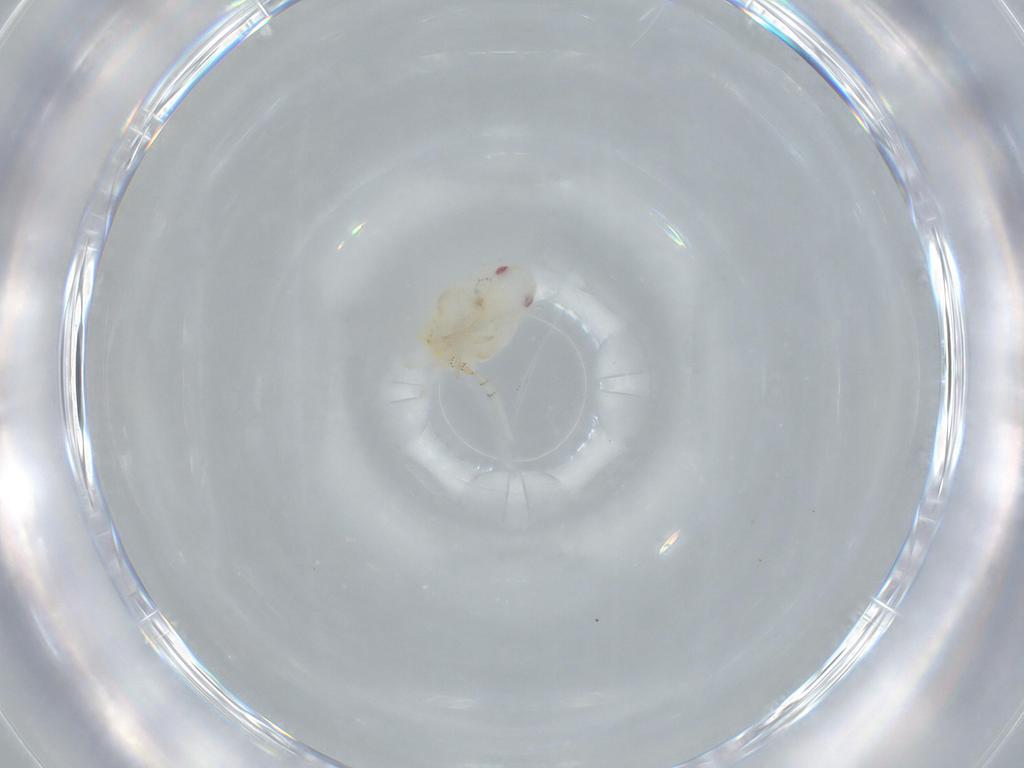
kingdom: Animalia
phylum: Arthropoda
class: Insecta
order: Hemiptera
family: Flatidae
